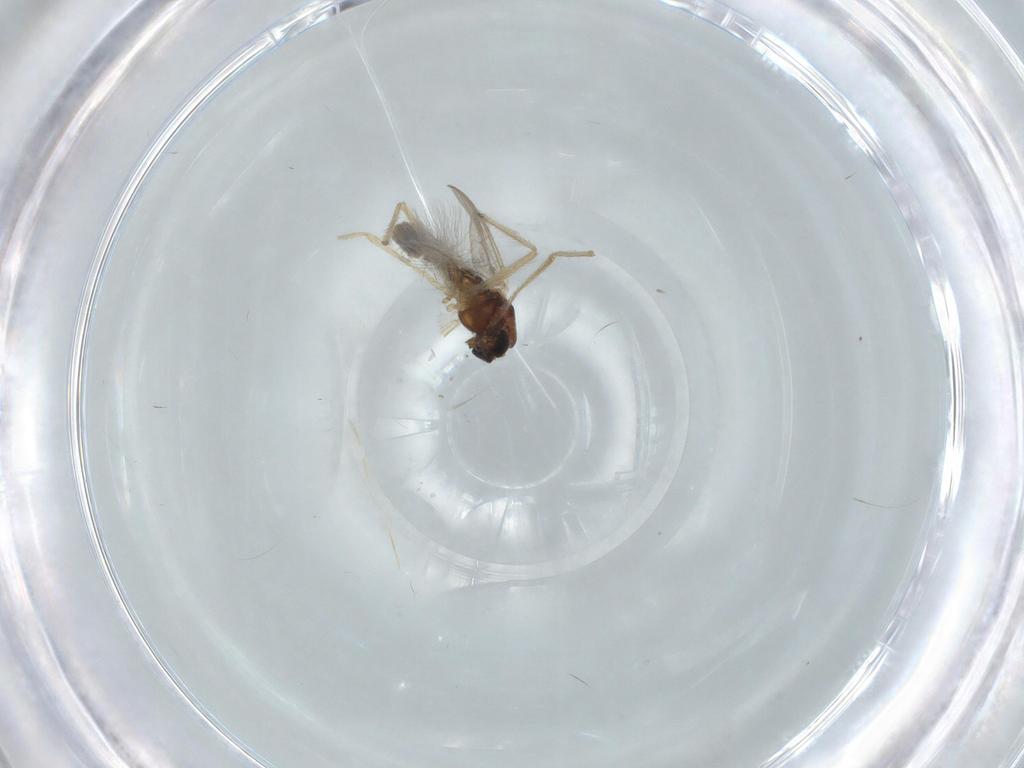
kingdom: Animalia
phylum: Arthropoda
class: Insecta
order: Diptera
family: Chironomidae
